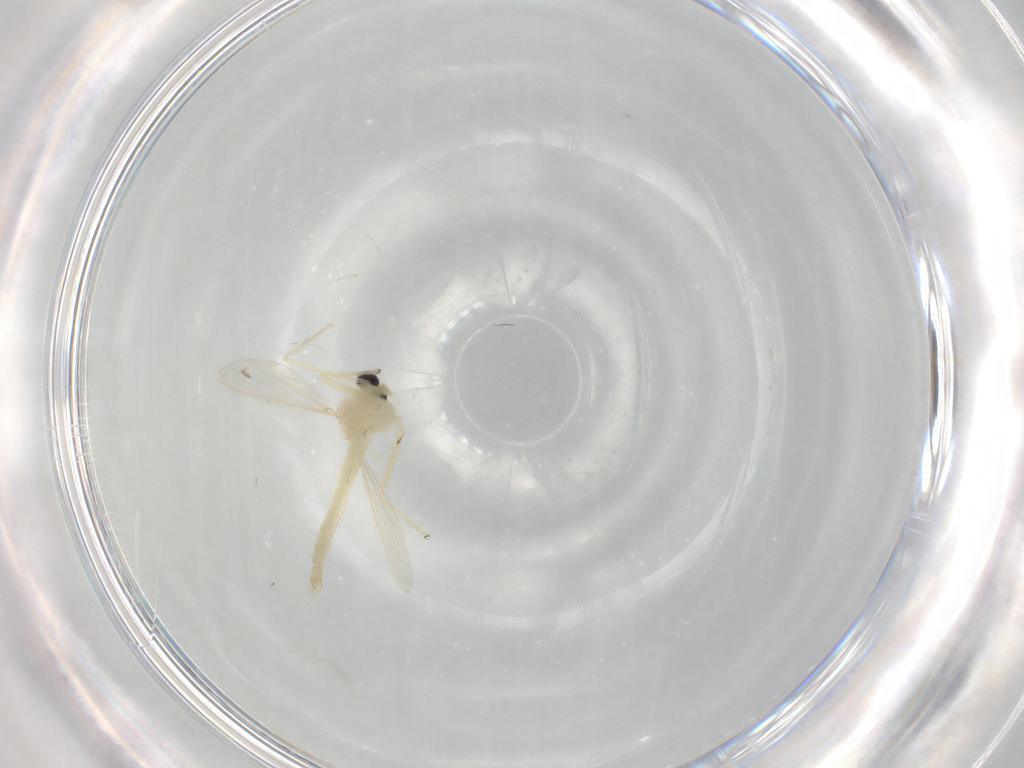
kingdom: Animalia
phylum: Arthropoda
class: Insecta
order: Diptera
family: Chironomidae
